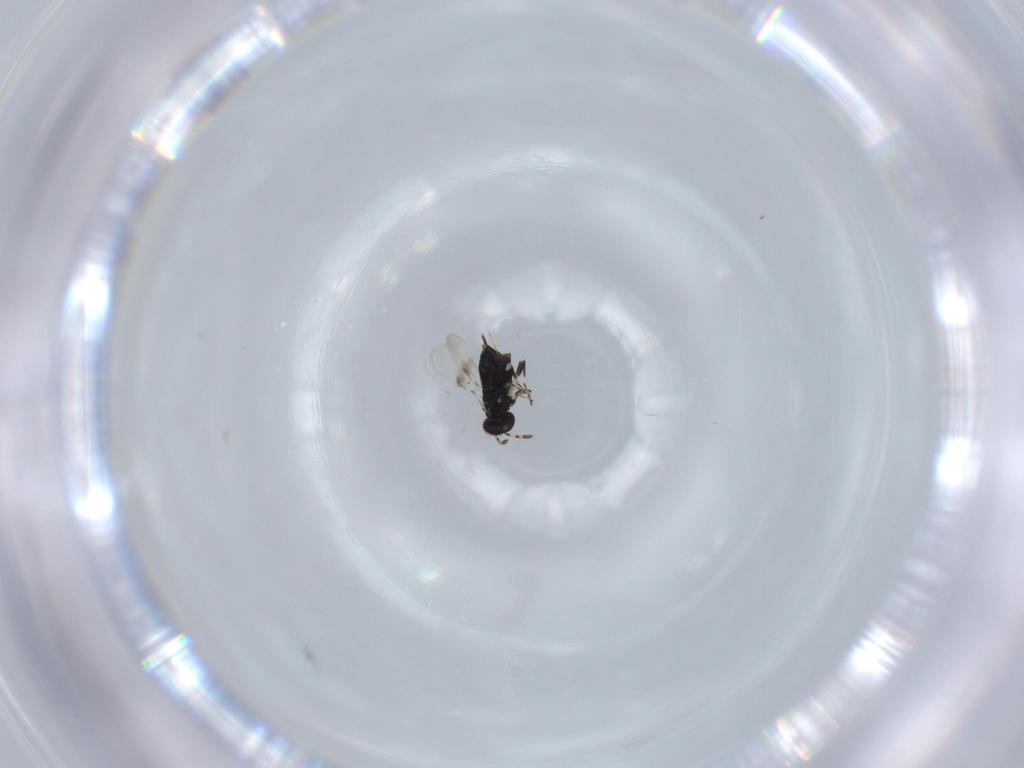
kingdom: Animalia
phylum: Arthropoda
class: Insecta
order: Hymenoptera
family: Azotidae
